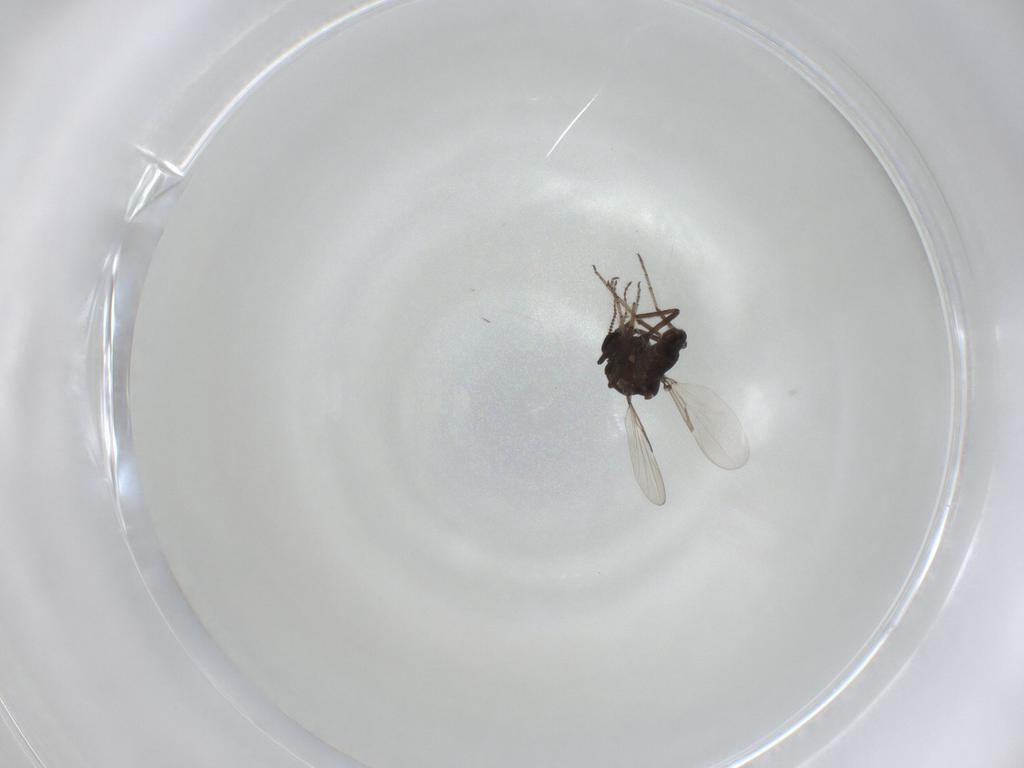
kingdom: Animalia
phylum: Arthropoda
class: Insecta
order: Diptera
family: Ceratopogonidae
